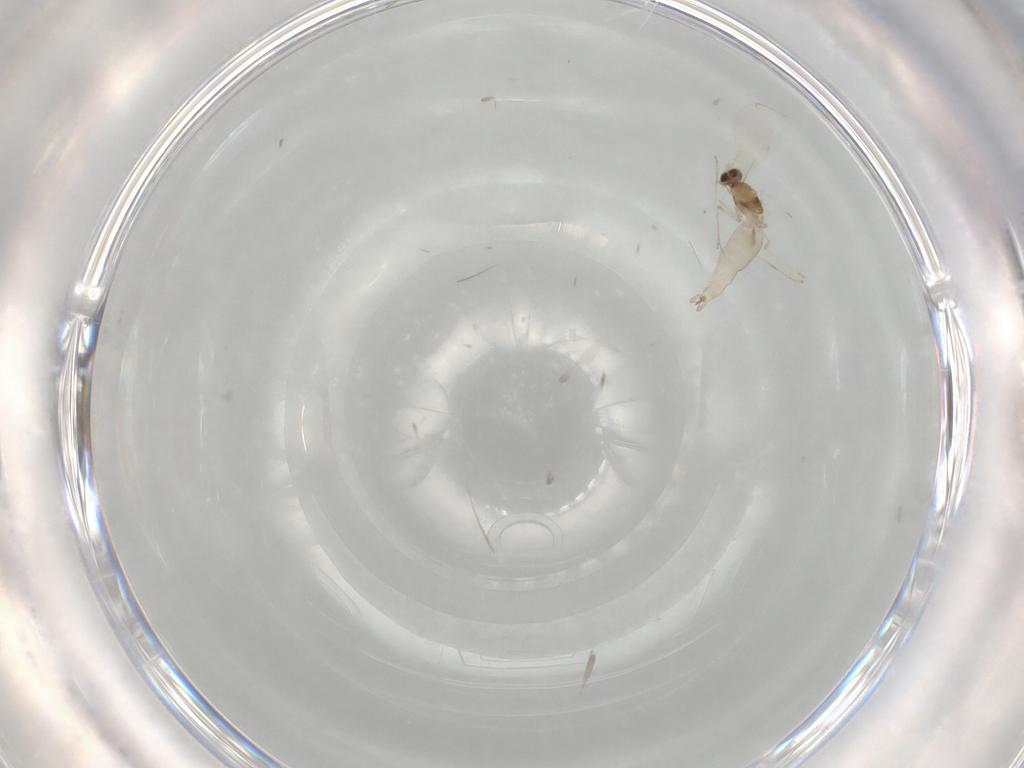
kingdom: Animalia
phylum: Arthropoda
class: Insecta
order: Diptera
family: Cecidomyiidae
